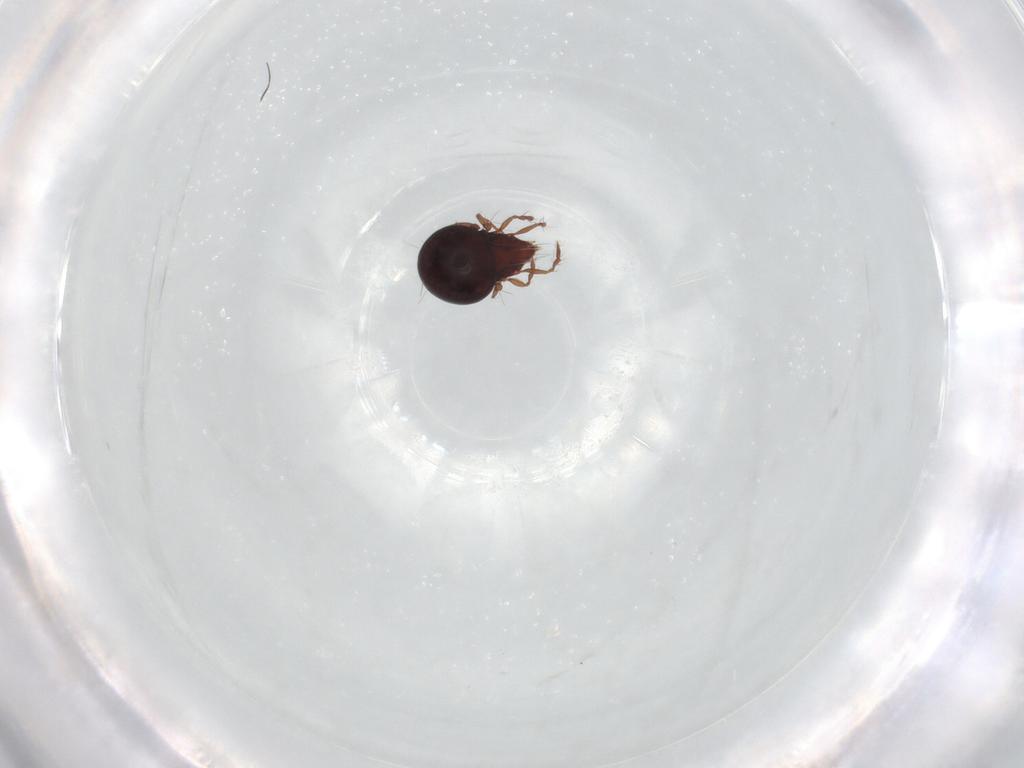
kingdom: Animalia
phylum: Arthropoda
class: Arachnida
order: Sarcoptiformes
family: Ceratoppiidae
